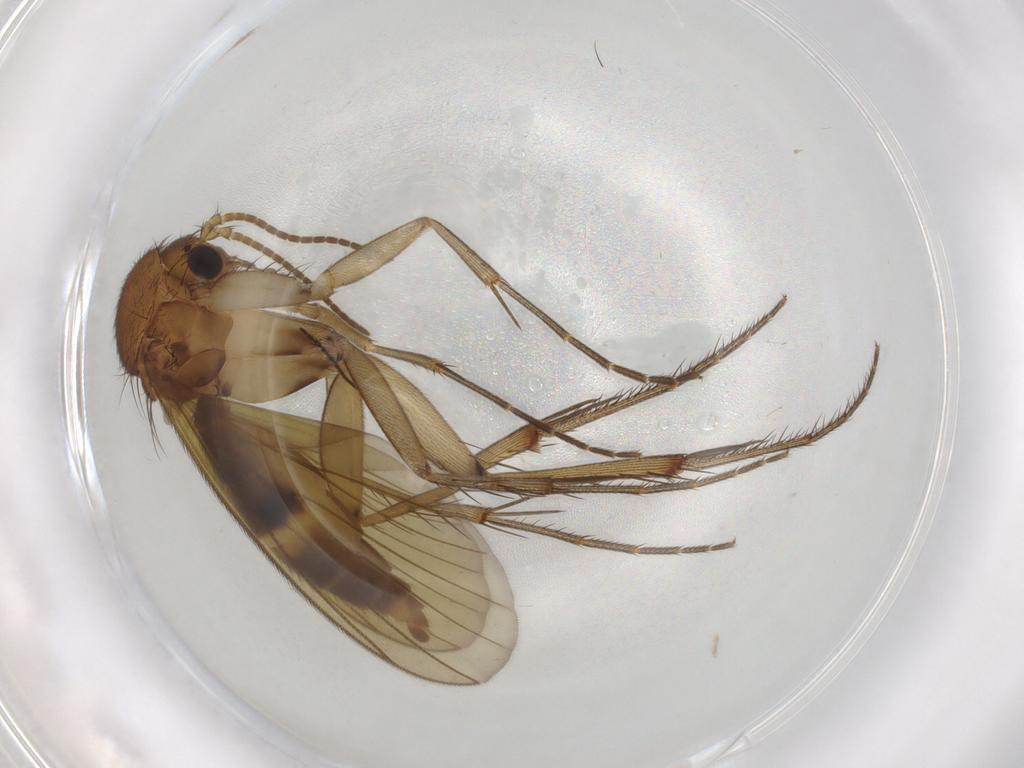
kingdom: Animalia
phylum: Arthropoda
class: Insecta
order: Diptera
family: Mycetophilidae
